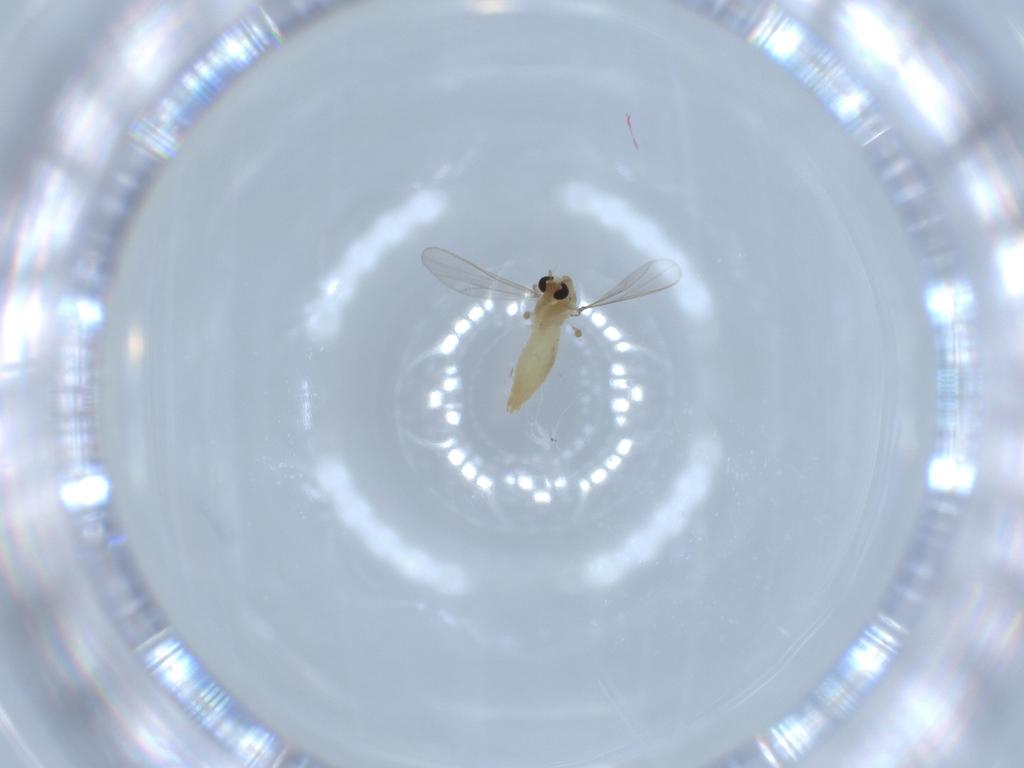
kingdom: Animalia
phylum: Arthropoda
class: Insecta
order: Diptera
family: Chironomidae
